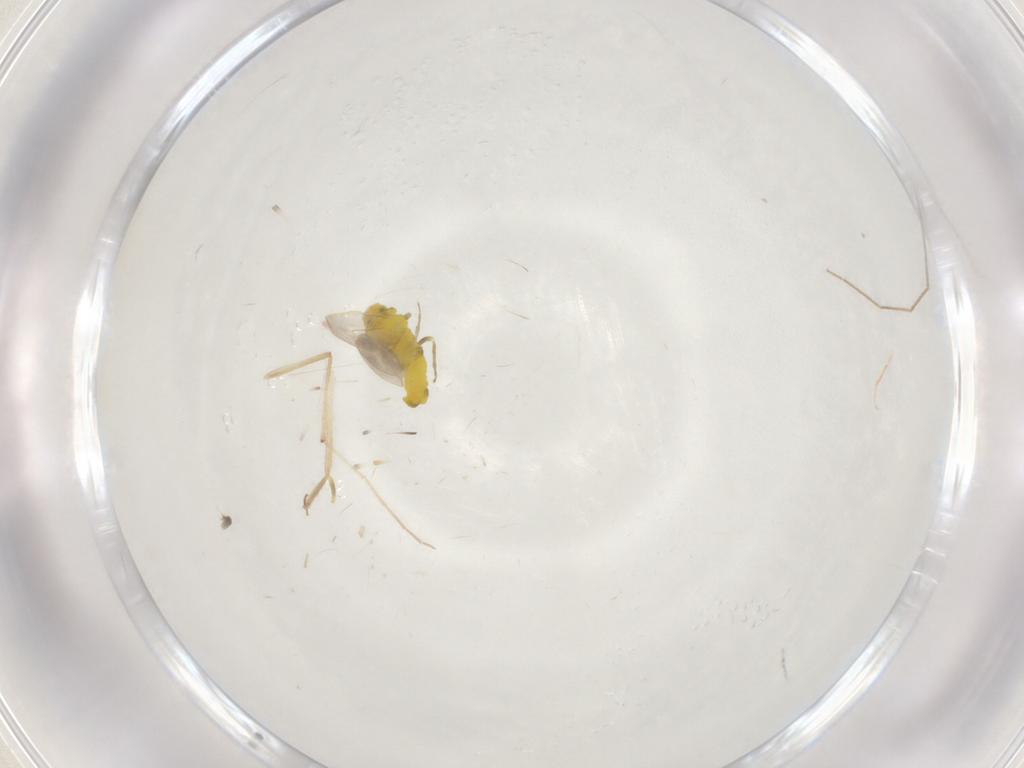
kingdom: Animalia
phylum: Arthropoda
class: Insecta
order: Hemiptera
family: Aleyrodidae
